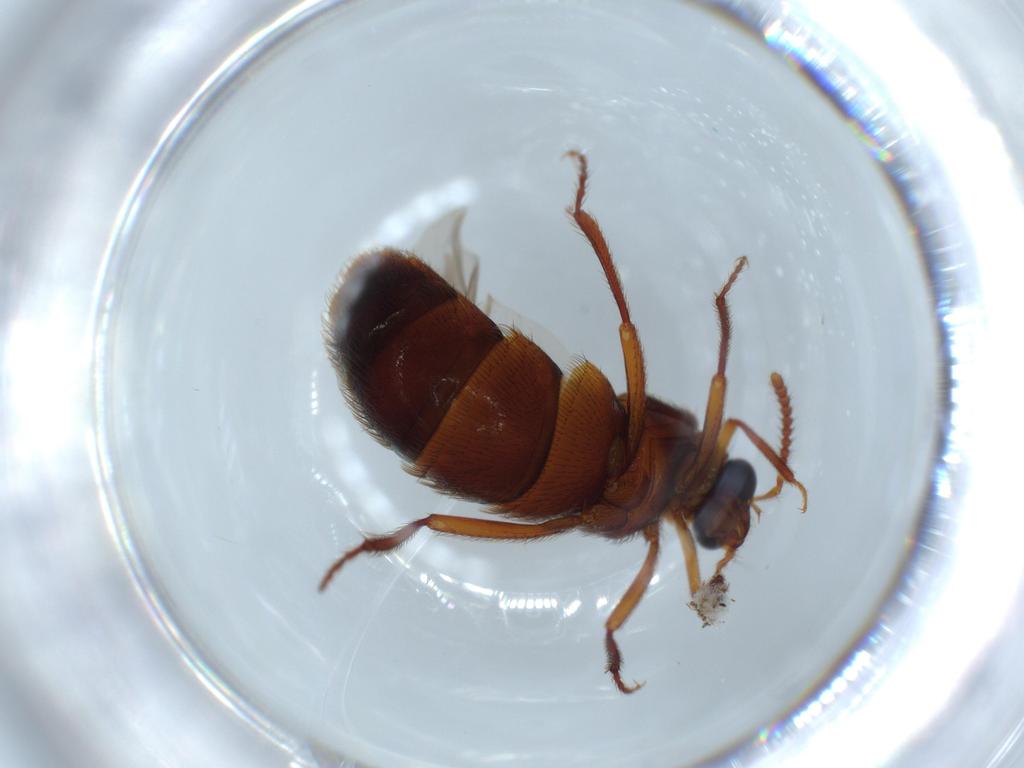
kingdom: Animalia
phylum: Arthropoda
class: Insecta
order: Coleoptera
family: Staphylinidae
